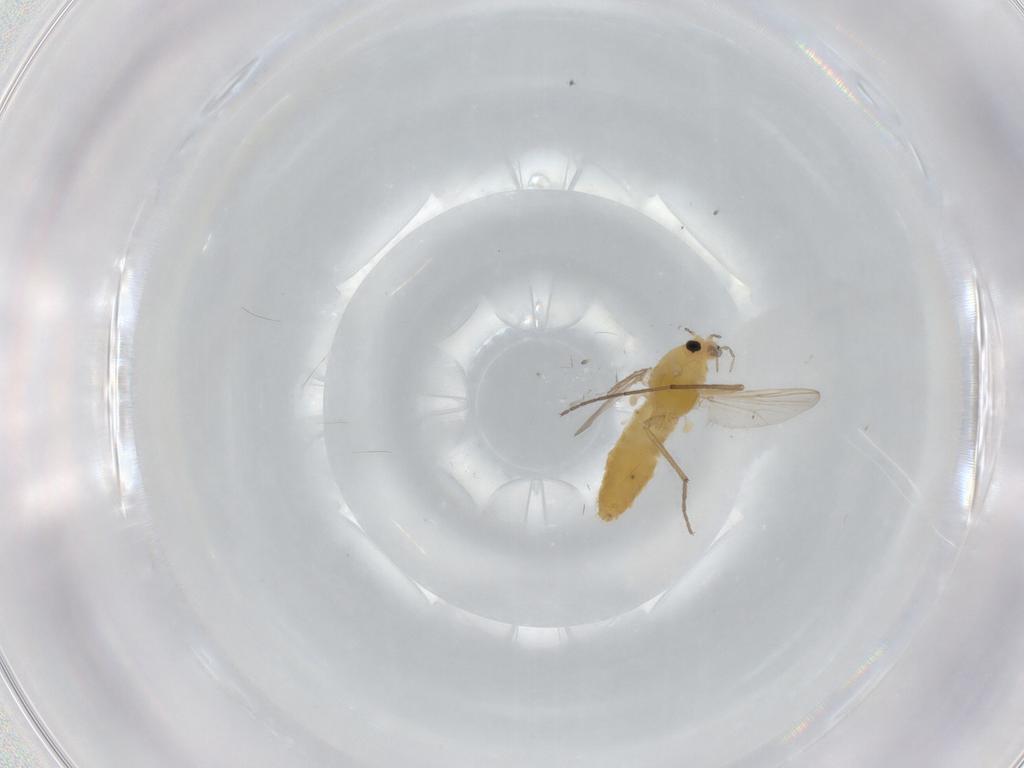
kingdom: Animalia
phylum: Arthropoda
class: Insecta
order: Diptera
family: Chironomidae
